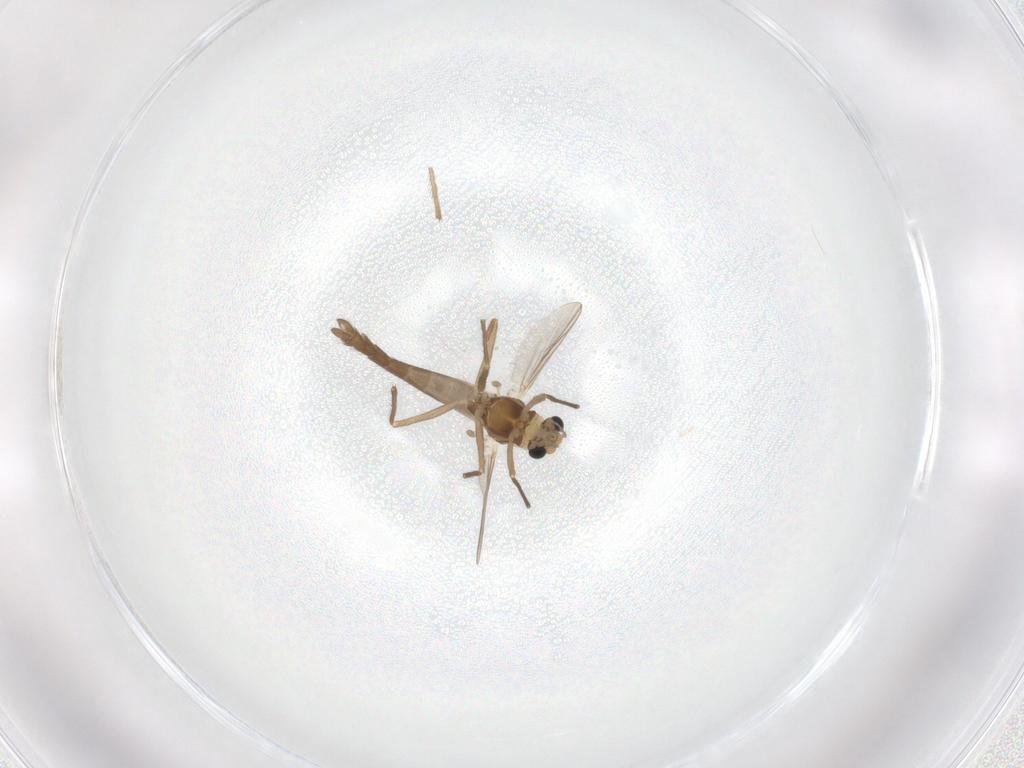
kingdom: Animalia
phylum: Arthropoda
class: Insecta
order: Diptera
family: Chironomidae
